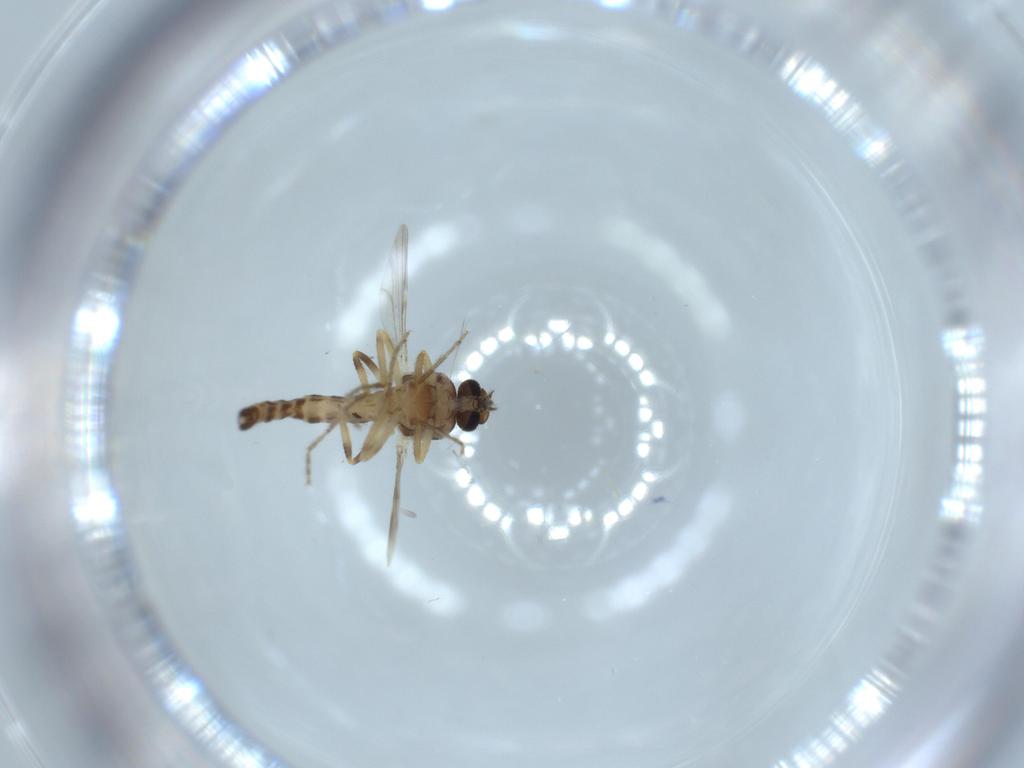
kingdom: Animalia
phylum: Arthropoda
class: Insecta
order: Diptera
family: Ceratopogonidae
